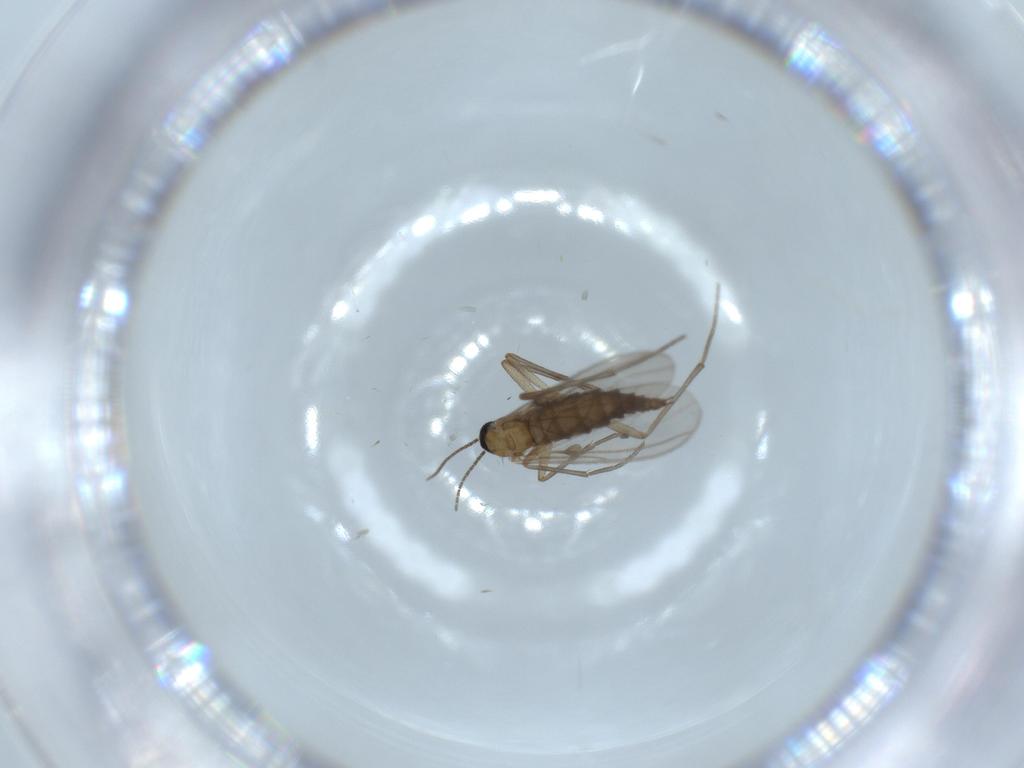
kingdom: Animalia
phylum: Arthropoda
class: Insecta
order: Diptera
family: Sciaridae
